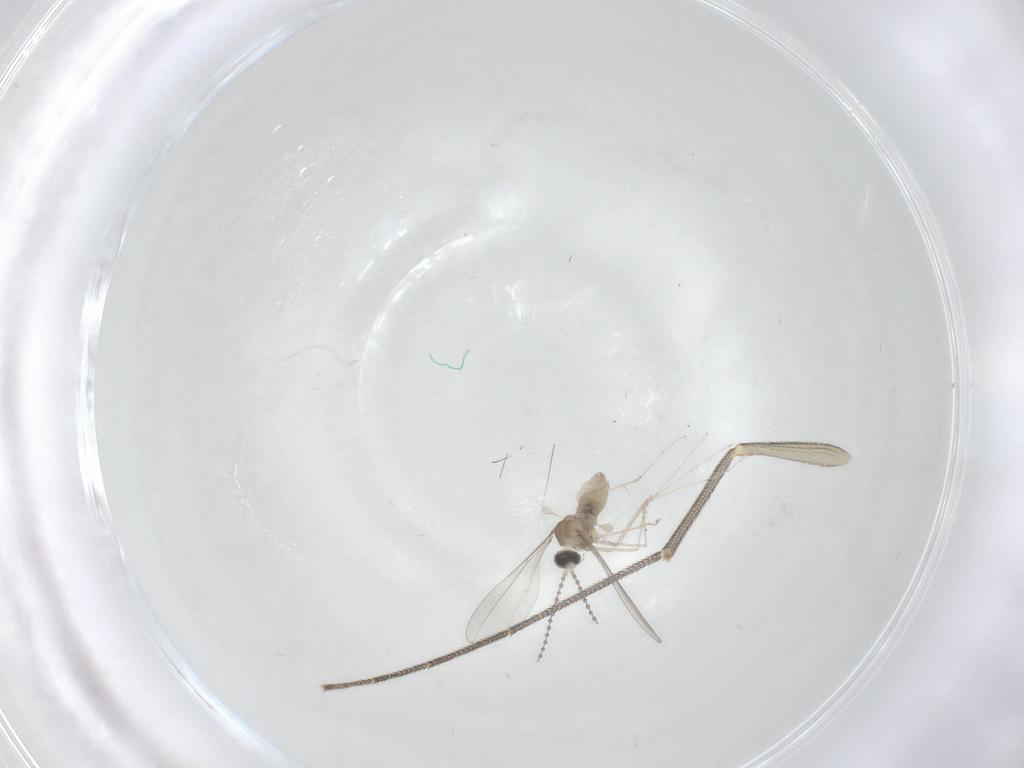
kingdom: Animalia
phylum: Arthropoda
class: Insecta
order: Diptera
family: Dolichopodidae
